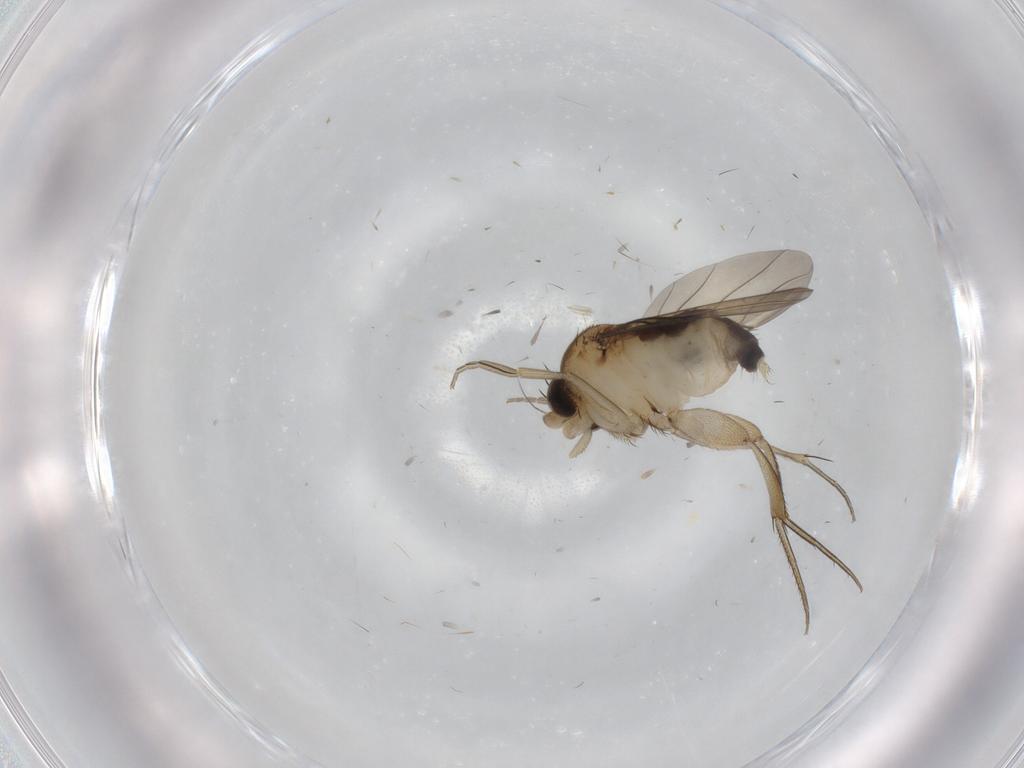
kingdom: Animalia
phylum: Arthropoda
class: Insecta
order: Diptera
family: Phoridae
